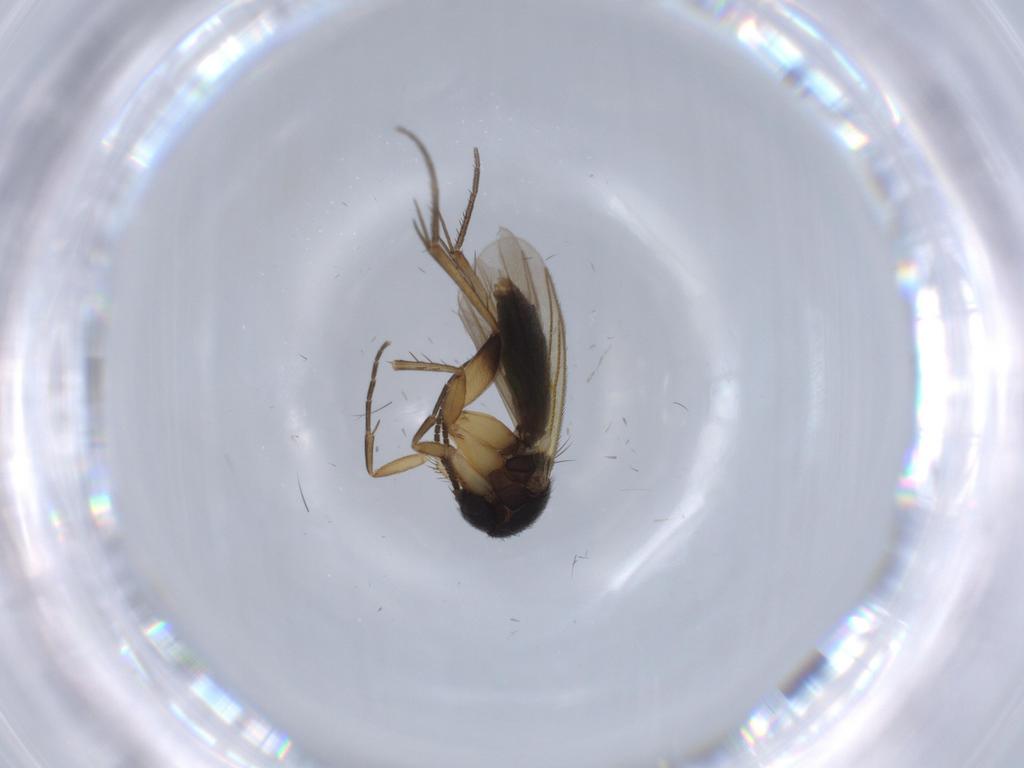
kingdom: Animalia
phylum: Arthropoda
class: Insecta
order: Diptera
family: Mycetophilidae
